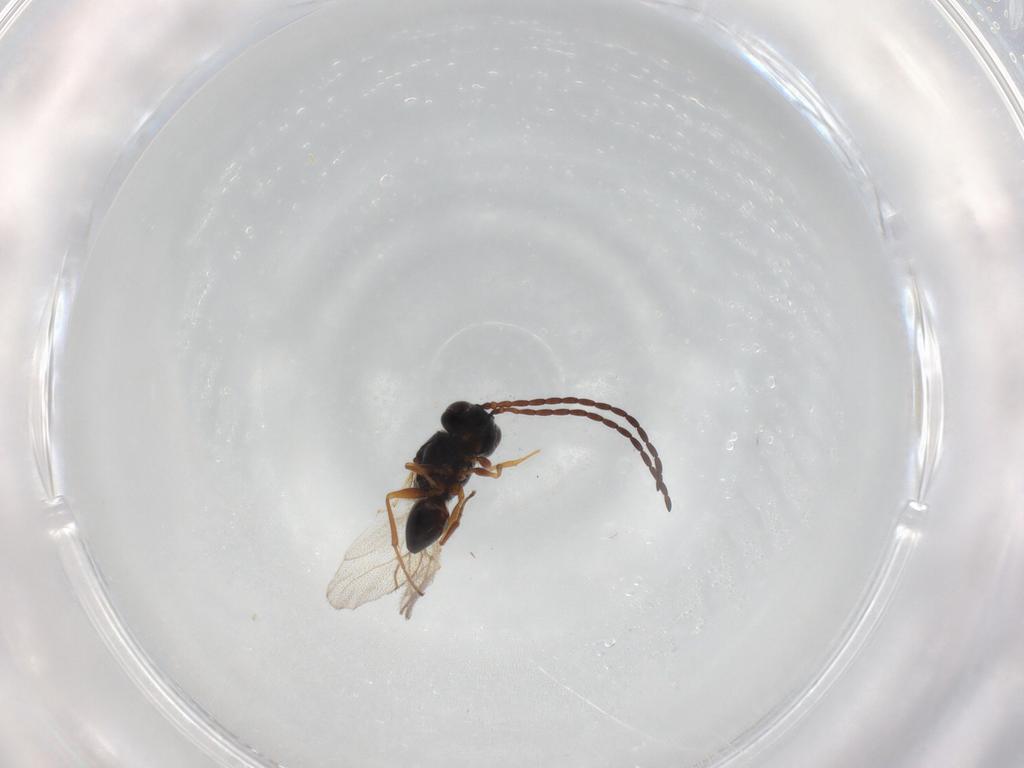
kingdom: Animalia
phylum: Arthropoda
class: Insecta
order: Hymenoptera
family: Figitidae
